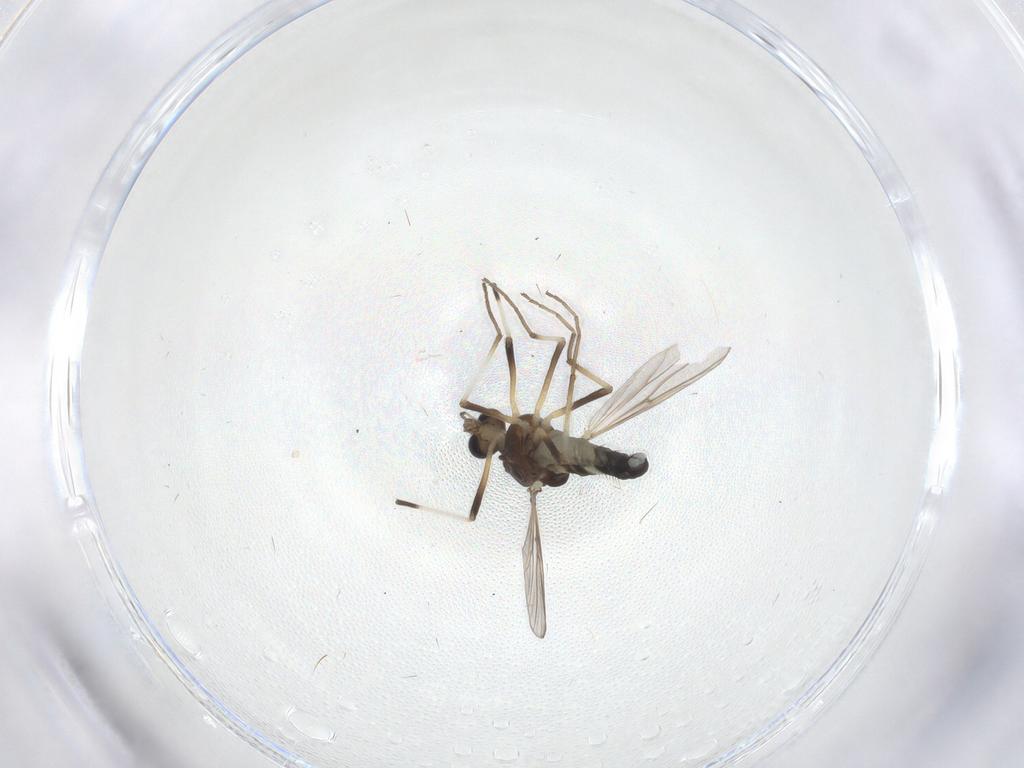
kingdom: Animalia
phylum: Arthropoda
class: Insecta
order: Diptera
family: Chironomidae
